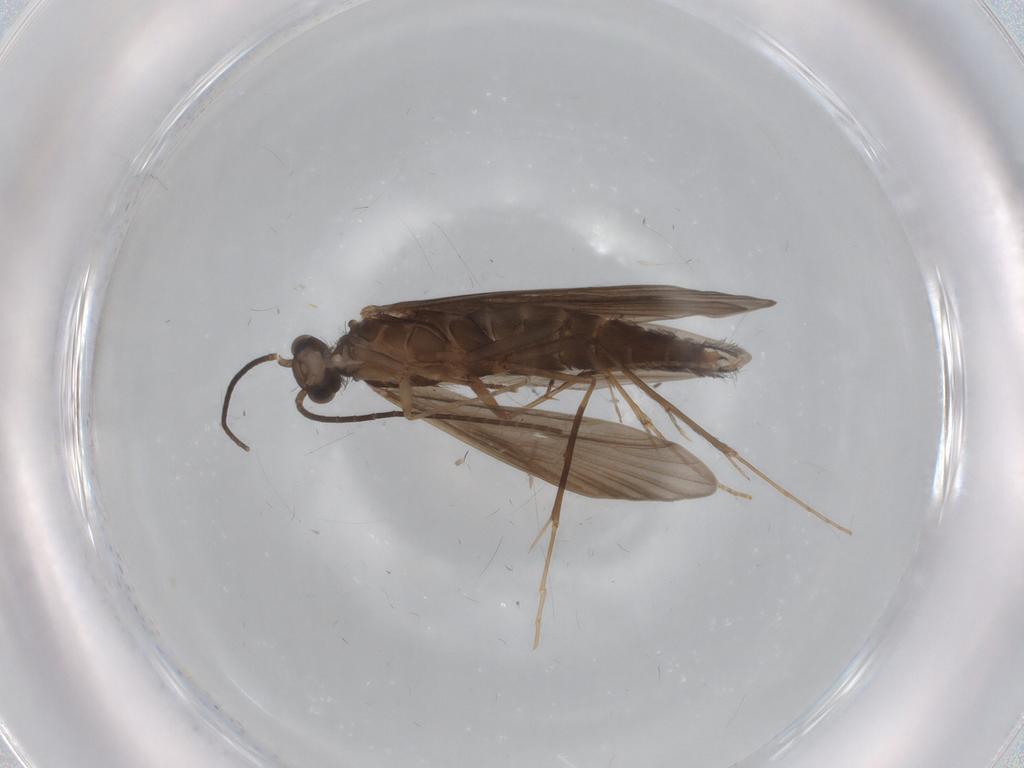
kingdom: Animalia
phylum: Arthropoda
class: Insecta
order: Trichoptera
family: Xiphocentronidae
